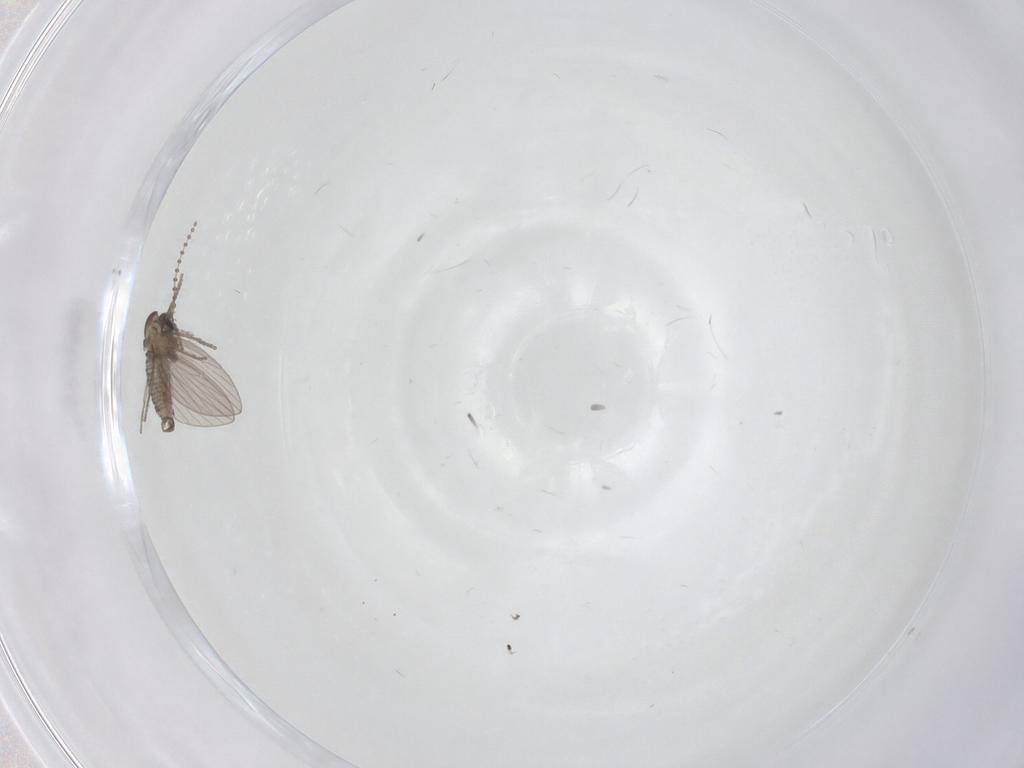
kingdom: Animalia
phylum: Arthropoda
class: Insecta
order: Diptera
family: Psychodidae
